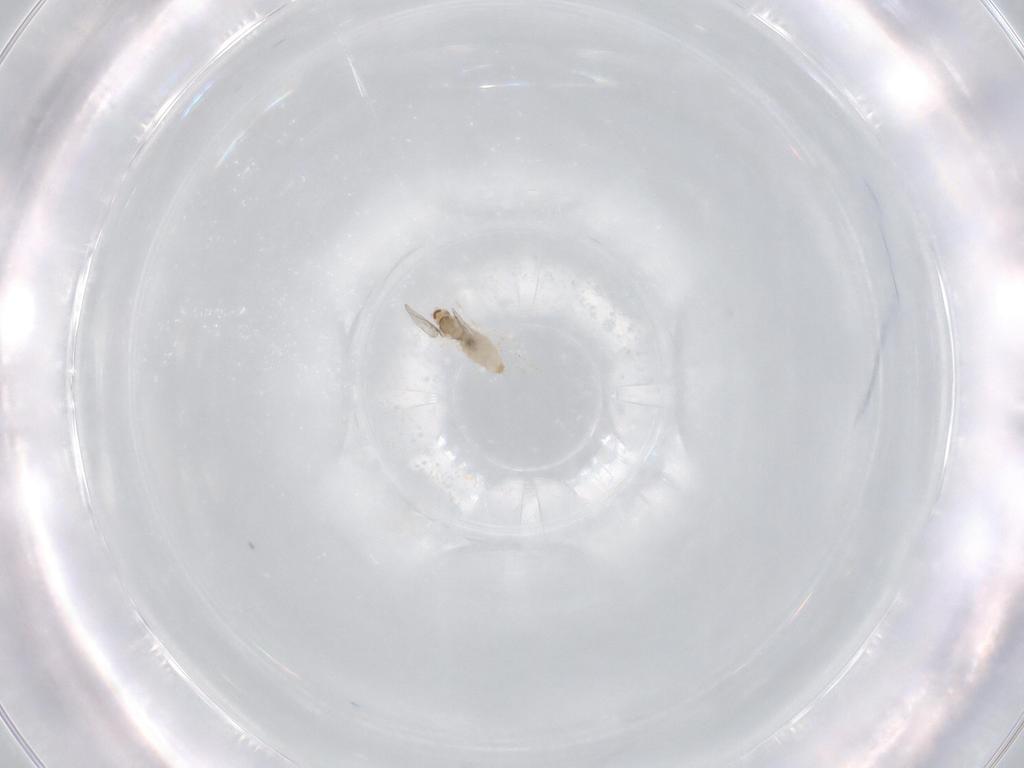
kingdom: Animalia
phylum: Arthropoda
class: Insecta
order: Diptera
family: Cecidomyiidae
